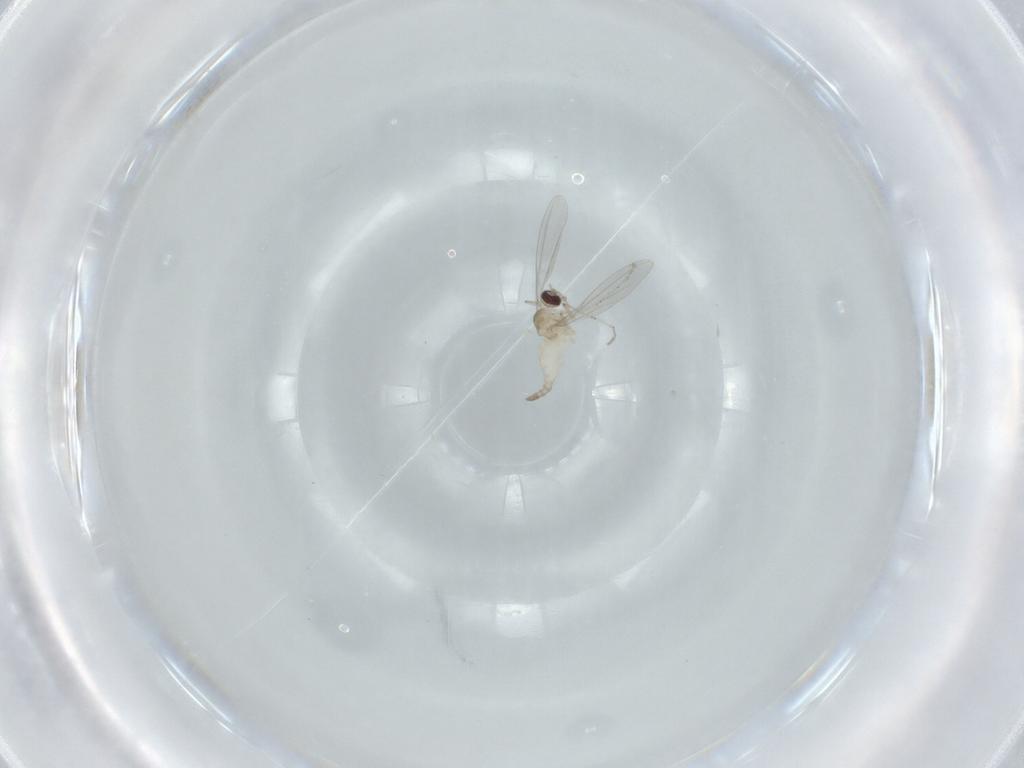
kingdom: Animalia
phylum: Arthropoda
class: Insecta
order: Diptera
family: Cecidomyiidae
